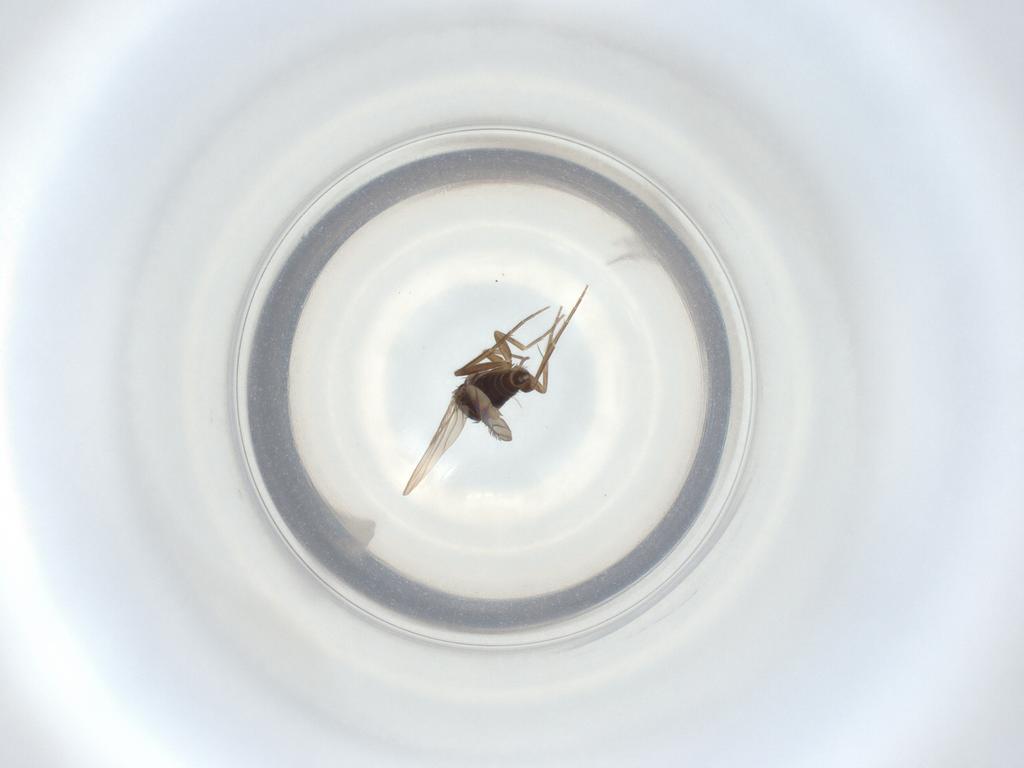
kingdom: Animalia
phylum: Arthropoda
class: Insecta
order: Diptera
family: Phoridae
